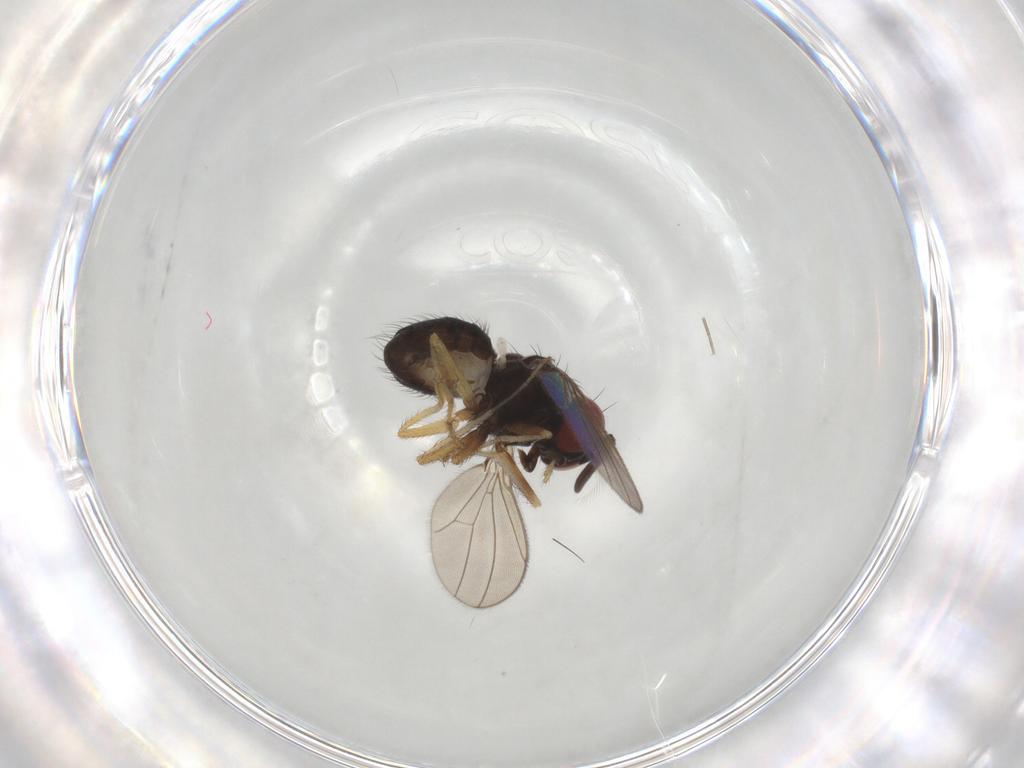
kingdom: Animalia
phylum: Arthropoda
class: Insecta
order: Diptera
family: Ephydridae
